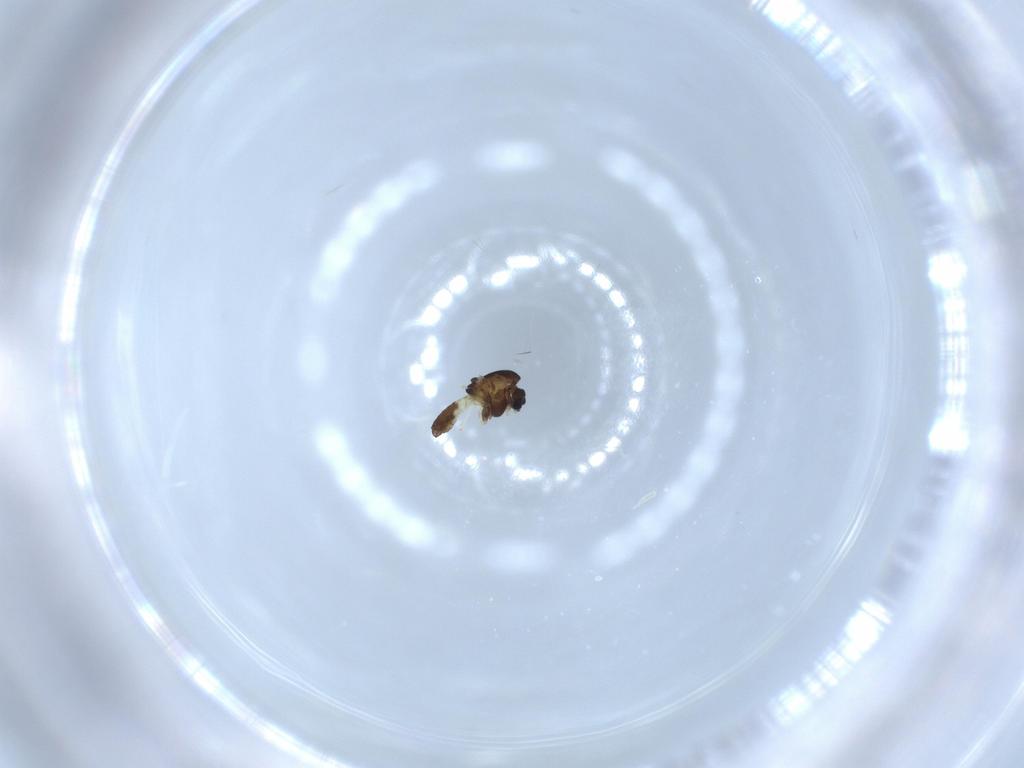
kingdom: Animalia
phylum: Arthropoda
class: Insecta
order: Diptera
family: Chironomidae
